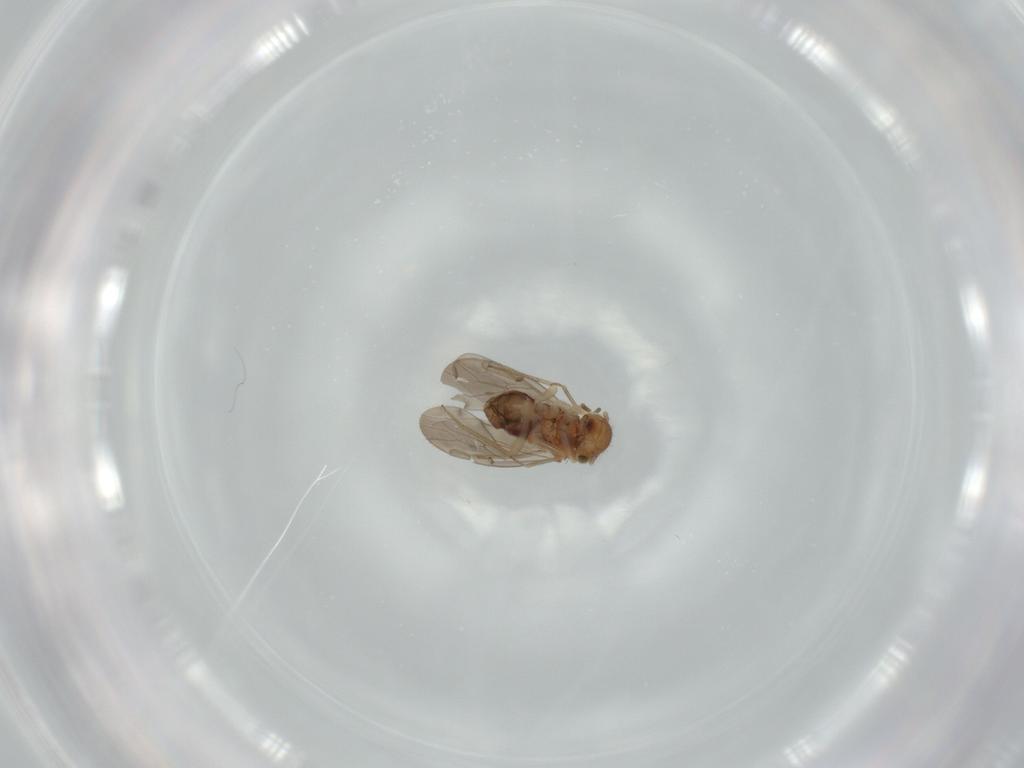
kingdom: Animalia
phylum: Arthropoda
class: Insecta
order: Psocodea
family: Ectopsocidae
